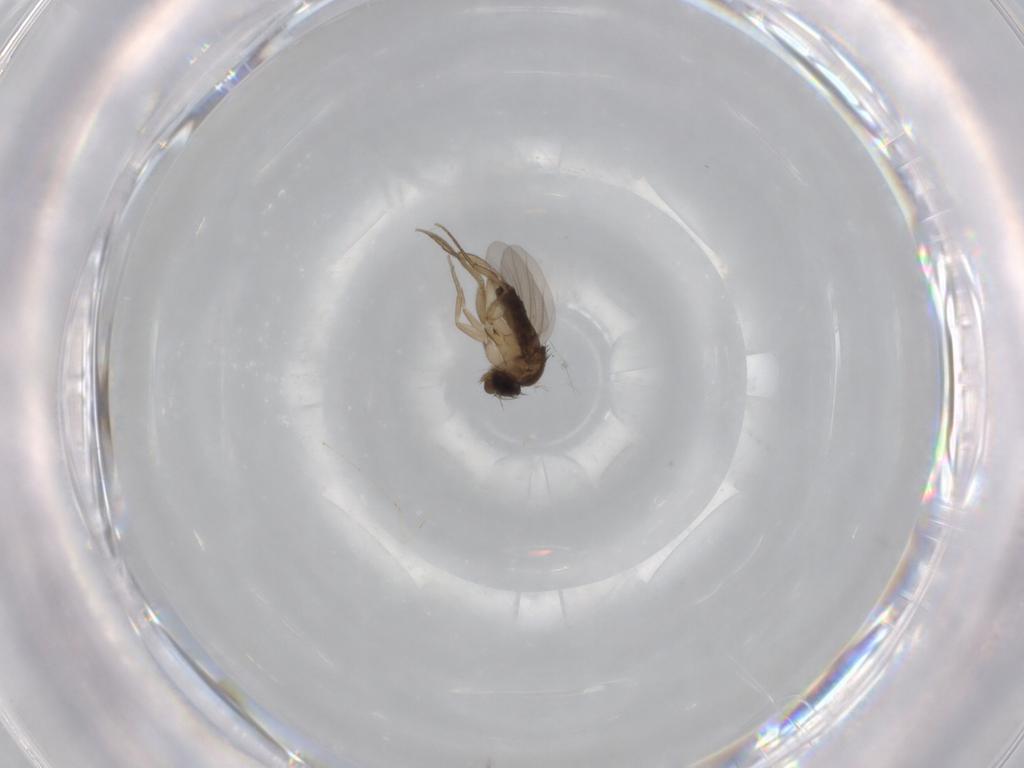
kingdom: Animalia
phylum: Arthropoda
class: Insecta
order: Diptera
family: Phoridae
